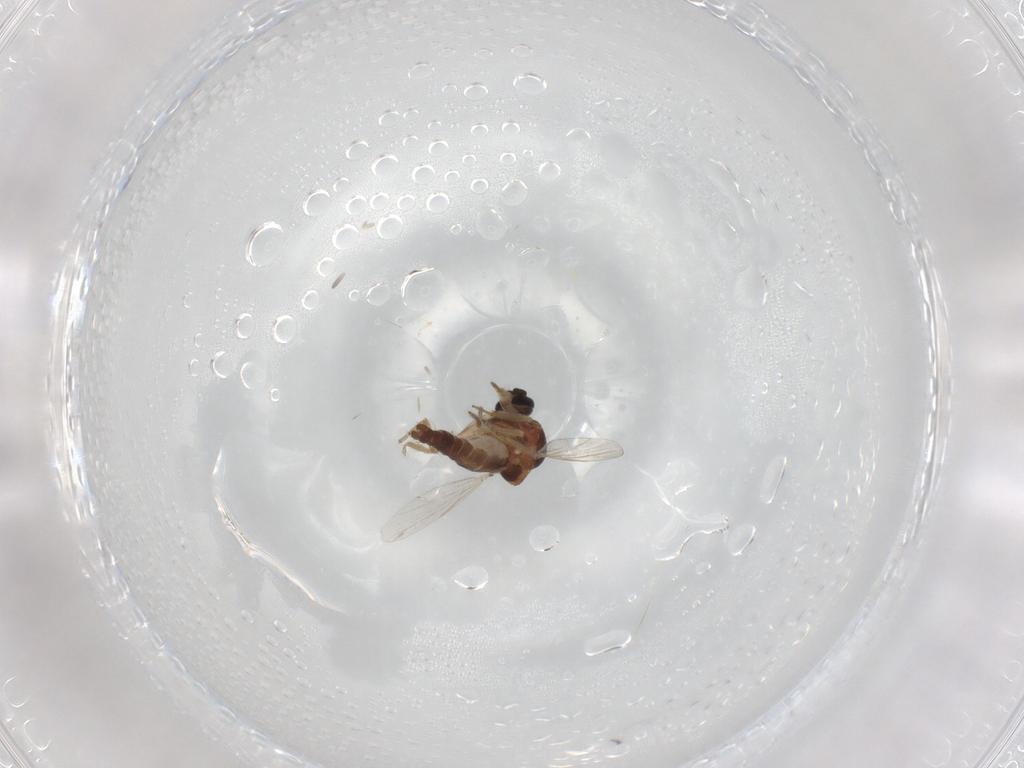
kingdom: Animalia
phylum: Arthropoda
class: Insecta
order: Diptera
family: Ceratopogonidae
